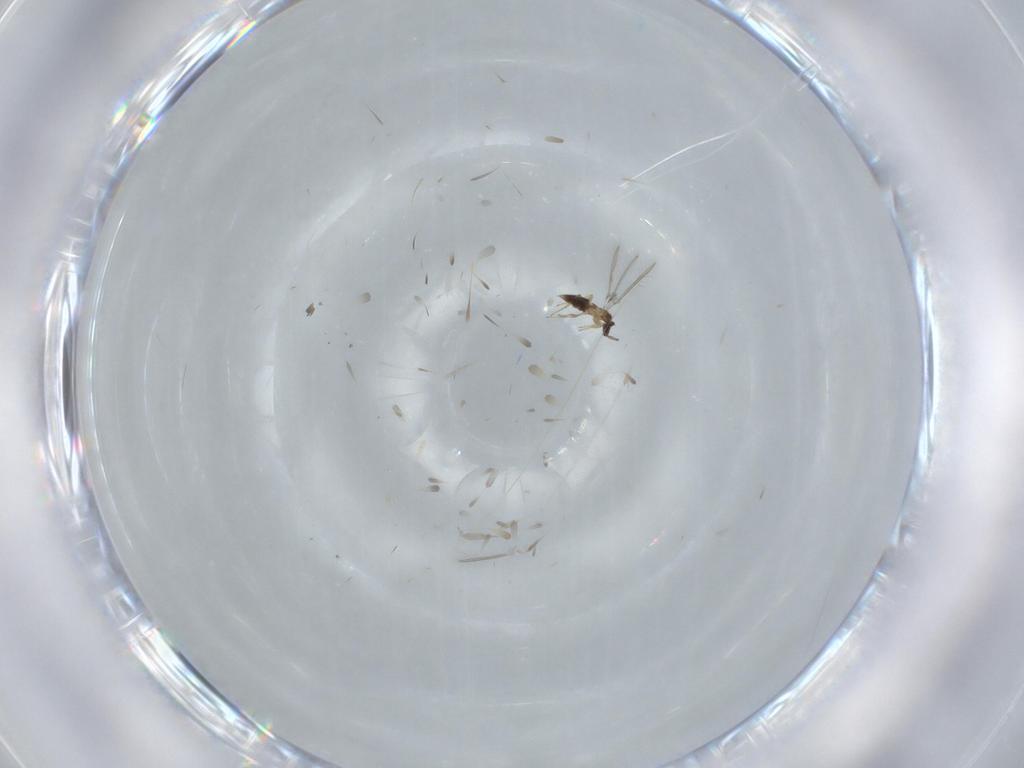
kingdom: Animalia
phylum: Arthropoda
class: Insecta
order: Hymenoptera
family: Mymaridae
